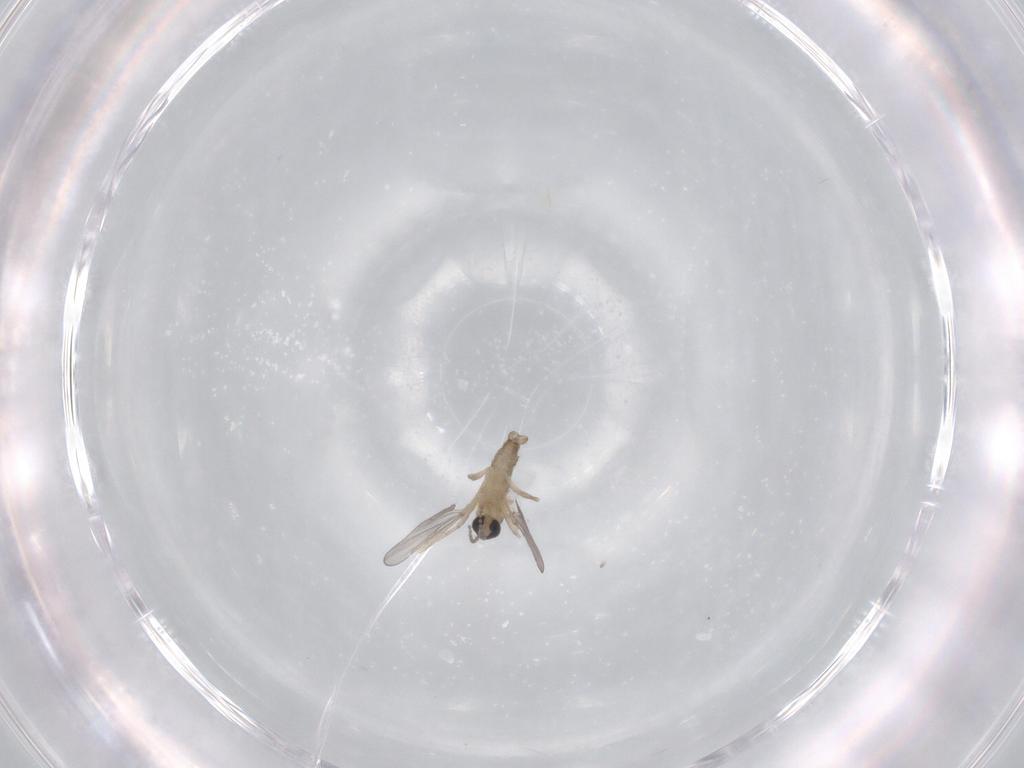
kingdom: Animalia
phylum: Arthropoda
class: Insecta
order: Diptera
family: Cecidomyiidae
